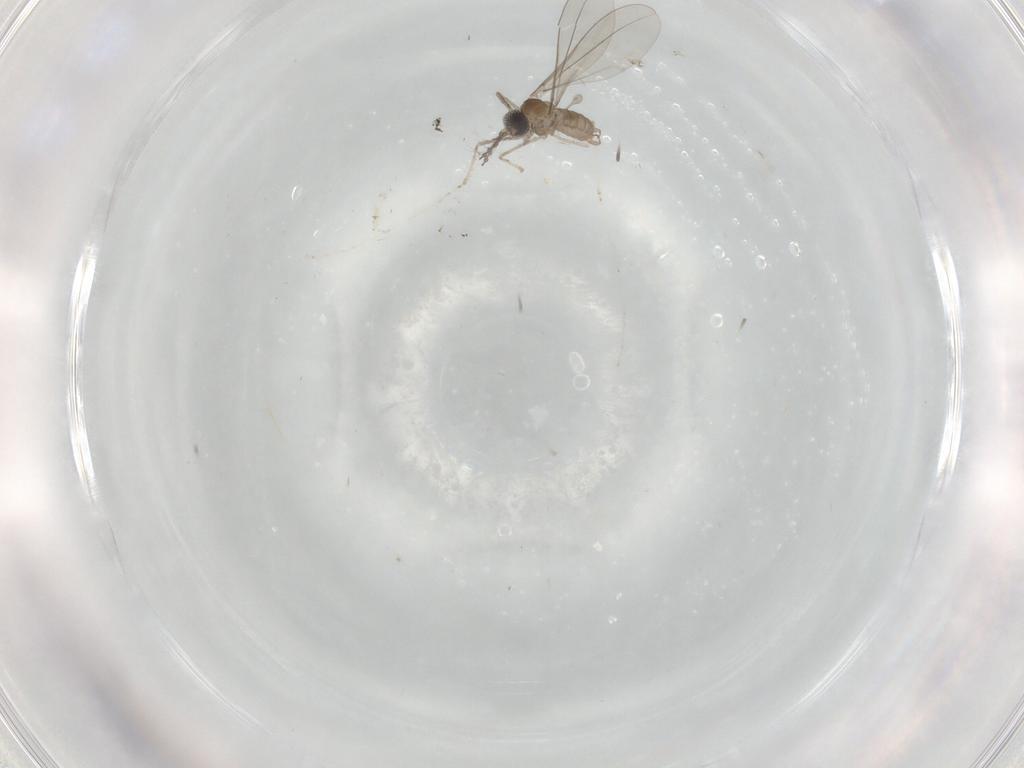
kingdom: Animalia
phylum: Arthropoda
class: Insecta
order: Diptera
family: Cecidomyiidae
